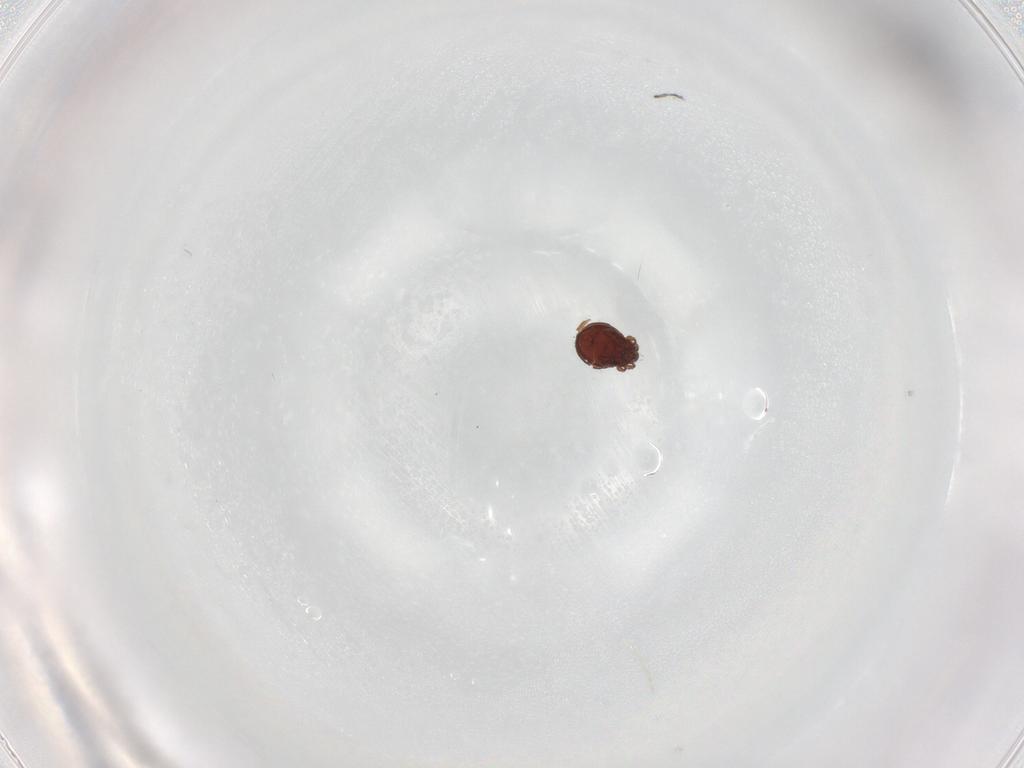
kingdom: Animalia
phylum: Arthropoda
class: Arachnida
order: Sarcoptiformes
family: Scheloribatidae
